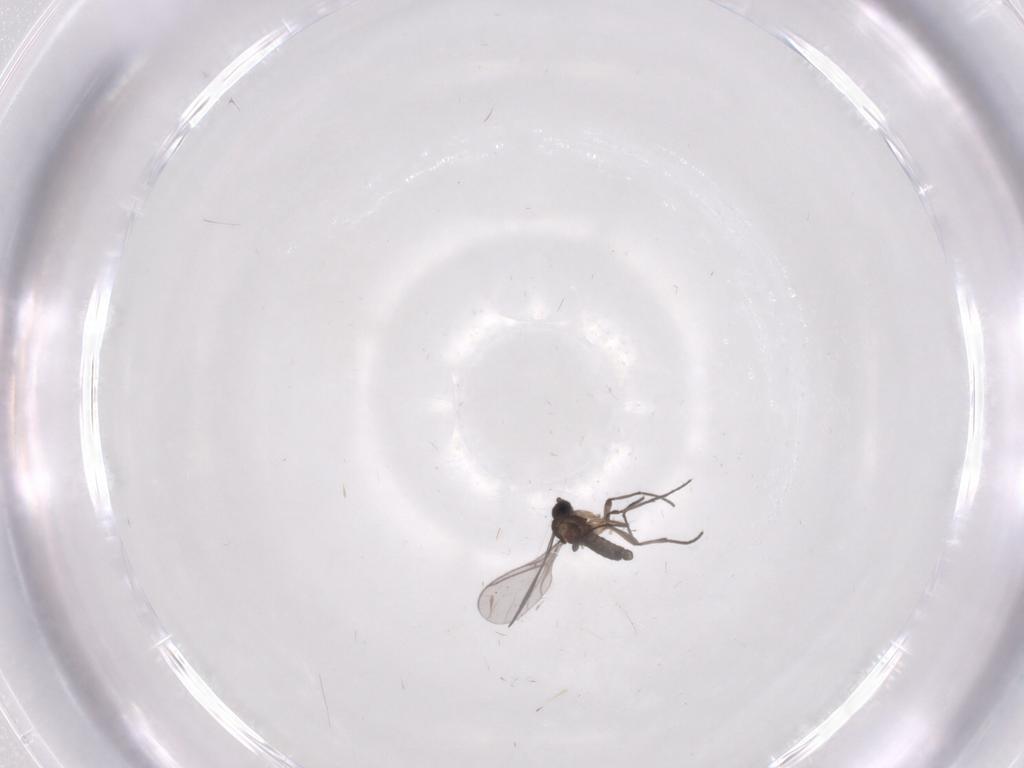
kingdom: Animalia
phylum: Arthropoda
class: Insecta
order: Diptera
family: Sciaridae
